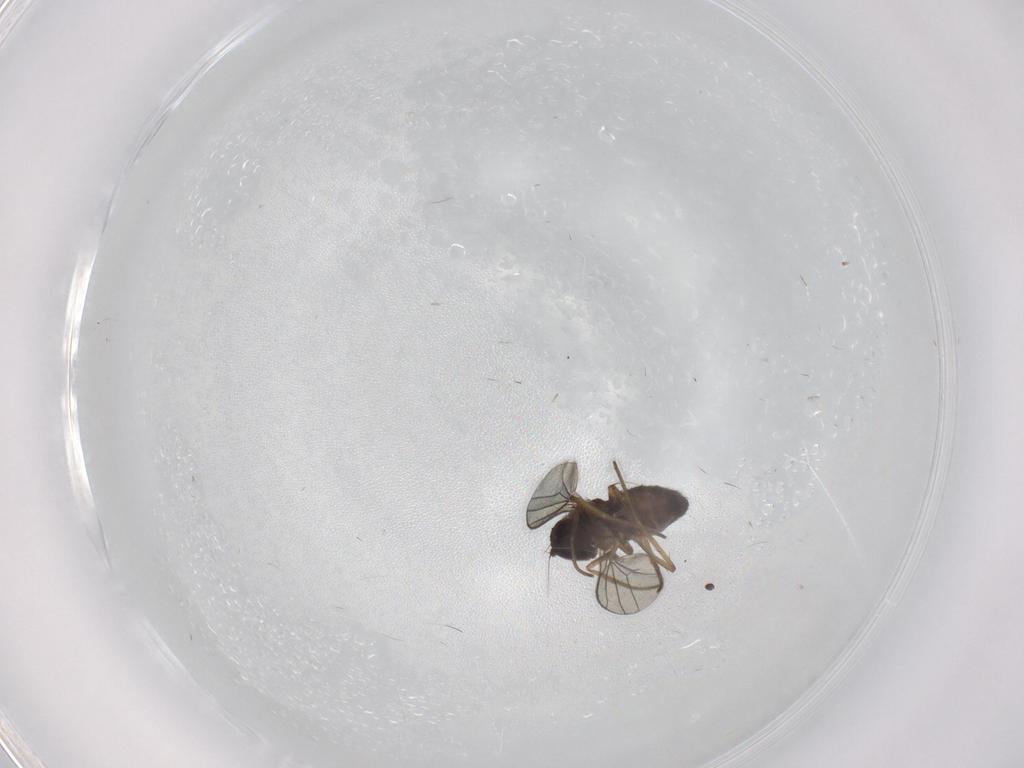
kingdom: Animalia
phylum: Arthropoda
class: Insecta
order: Diptera
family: Dolichopodidae
